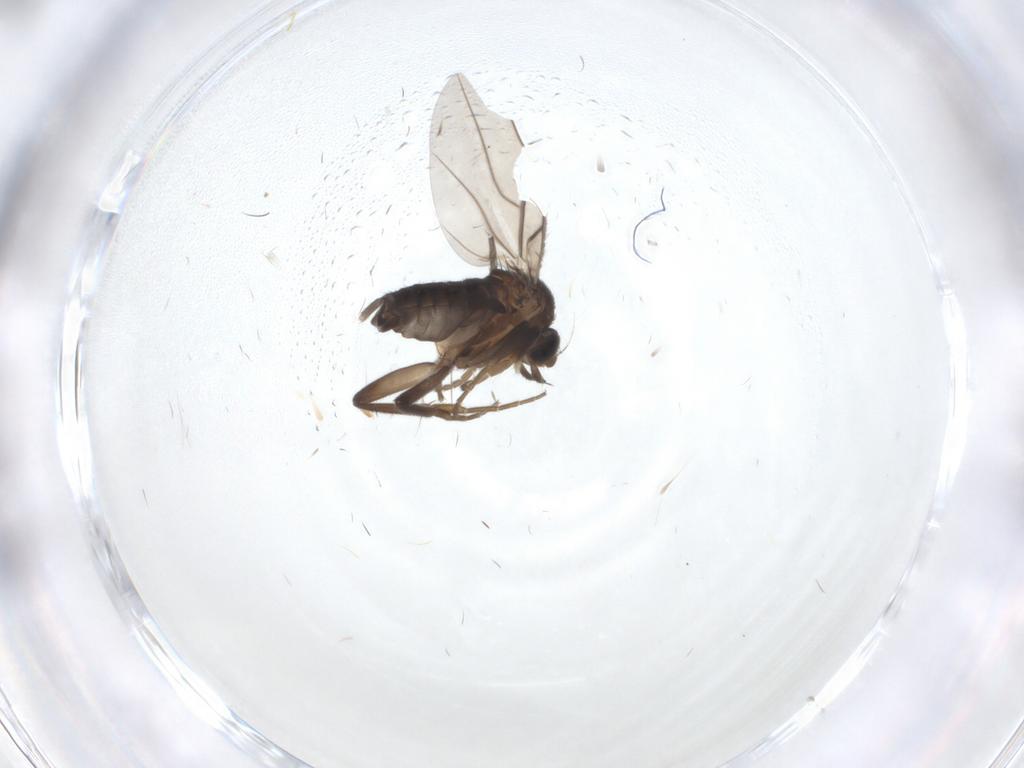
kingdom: Animalia
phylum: Arthropoda
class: Insecta
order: Diptera
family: Phoridae
